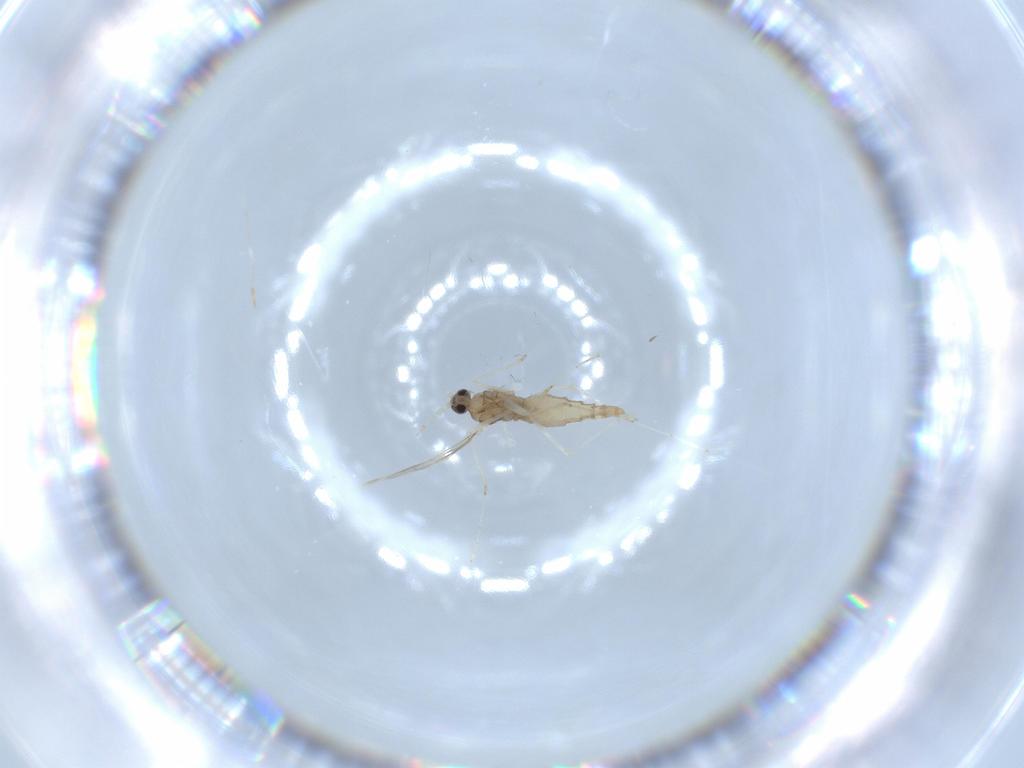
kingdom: Animalia
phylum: Arthropoda
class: Insecta
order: Diptera
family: Cecidomyiidae
